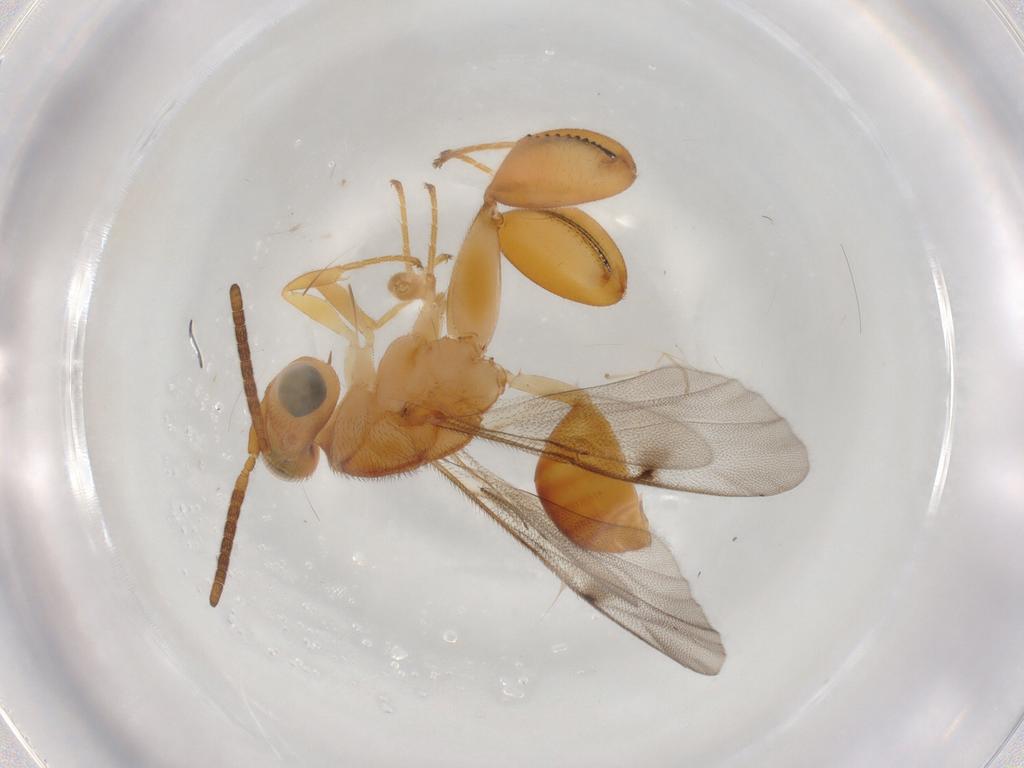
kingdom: Animalia
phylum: Arthropoda
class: Insecta
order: Hymenoptera
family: Chalcididae
